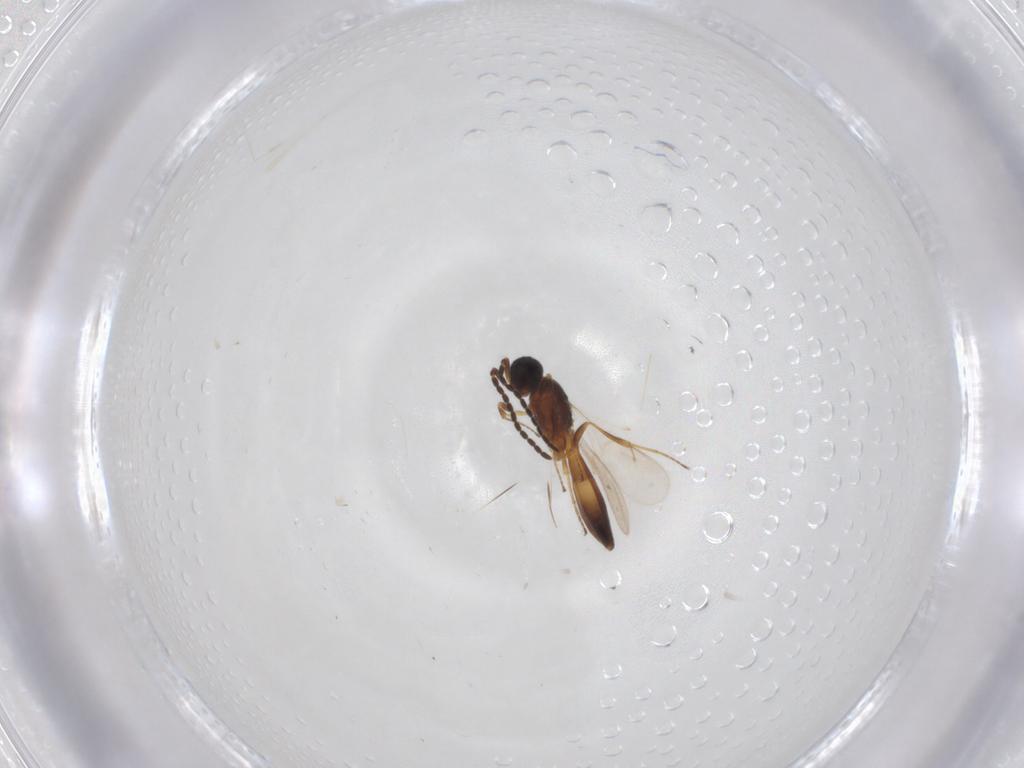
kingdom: Animalia
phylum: Arthropoda
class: Insecta
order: Hymenoptera
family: Scelionidae
